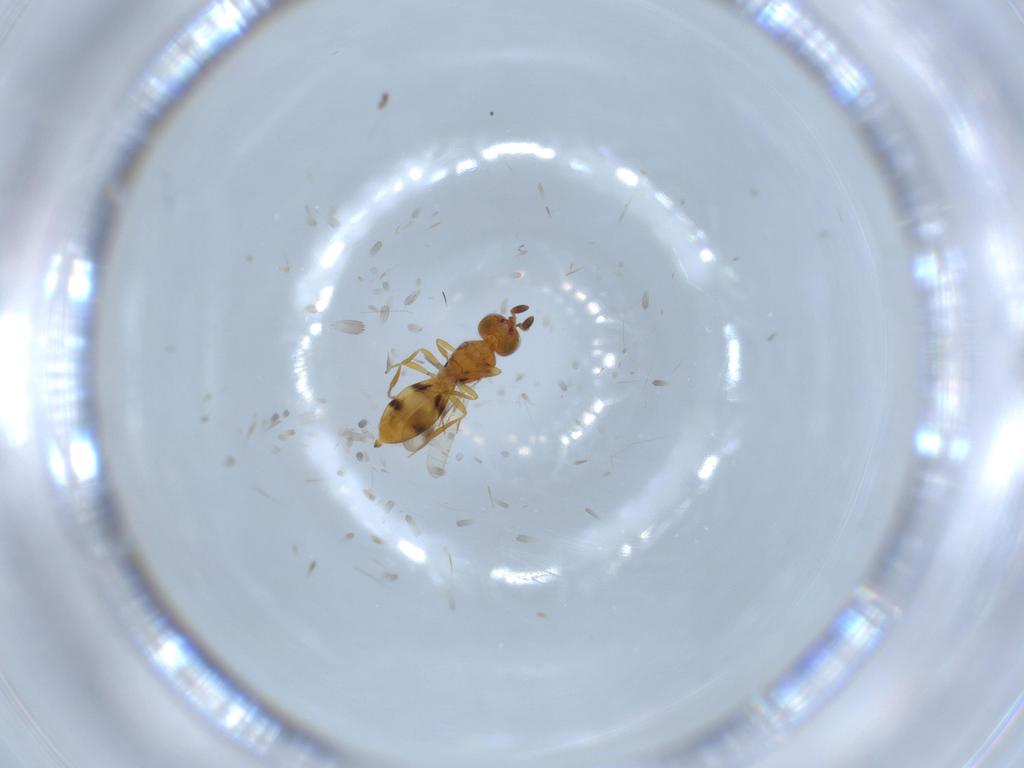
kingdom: Animalia
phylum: Arthropoda
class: Insecta
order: Hymenoptera
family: Scelionidae
